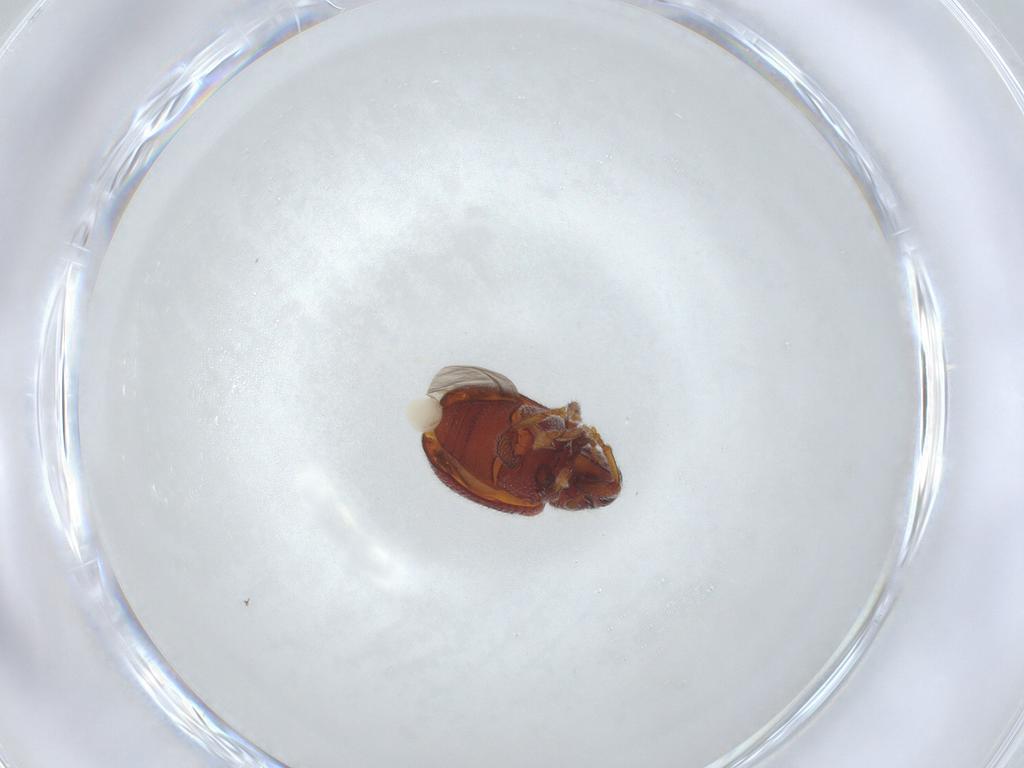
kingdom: Animalia
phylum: Arthropoda
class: Insecta
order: Coleoptera
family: Curculionidae
